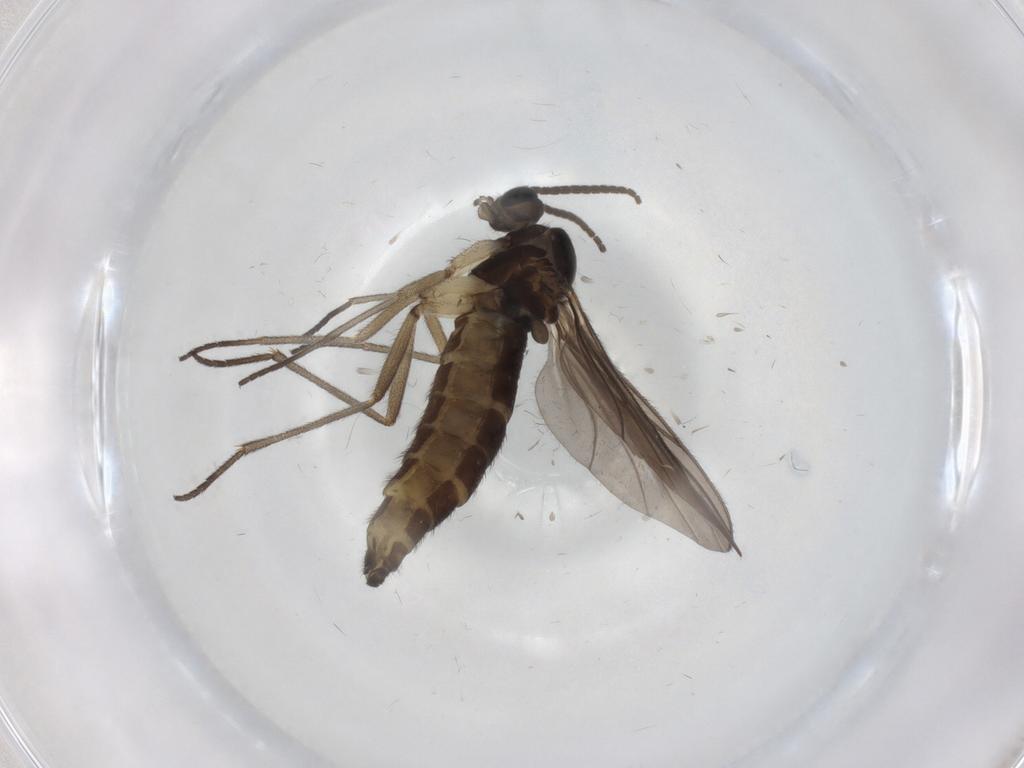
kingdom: Animalia
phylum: Arthropoda
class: Insecta
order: Diptera
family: Sciaridae
